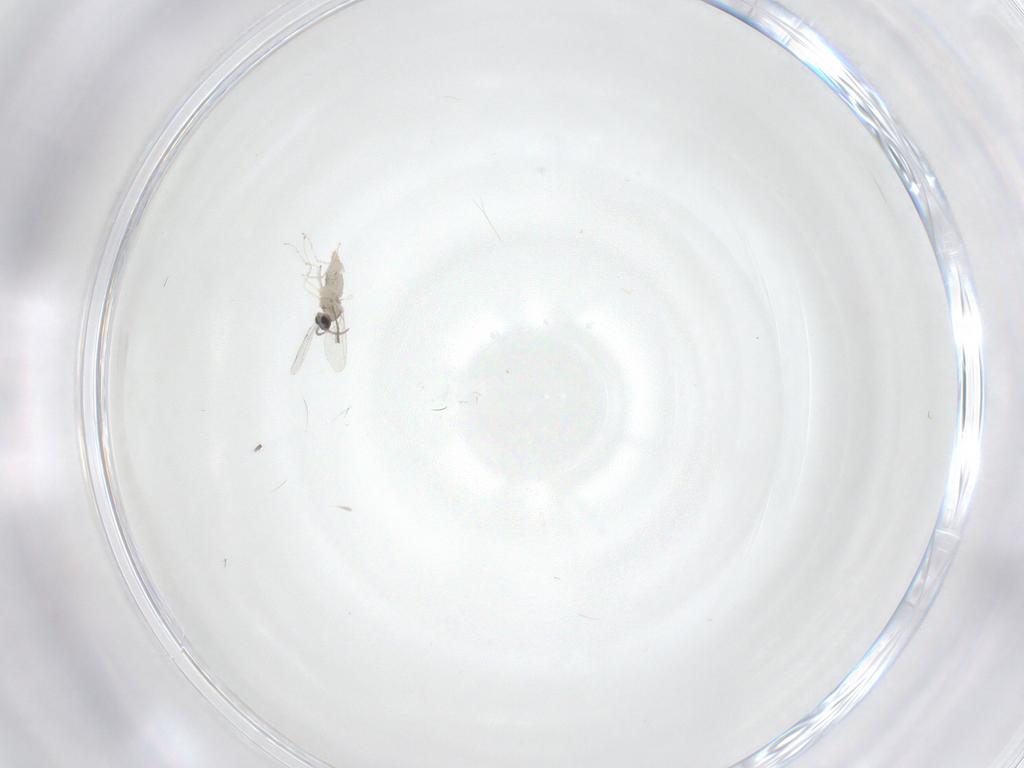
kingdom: Animalia
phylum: Arthropoda
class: Insecta
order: Diptera
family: Cecidomyiidae
